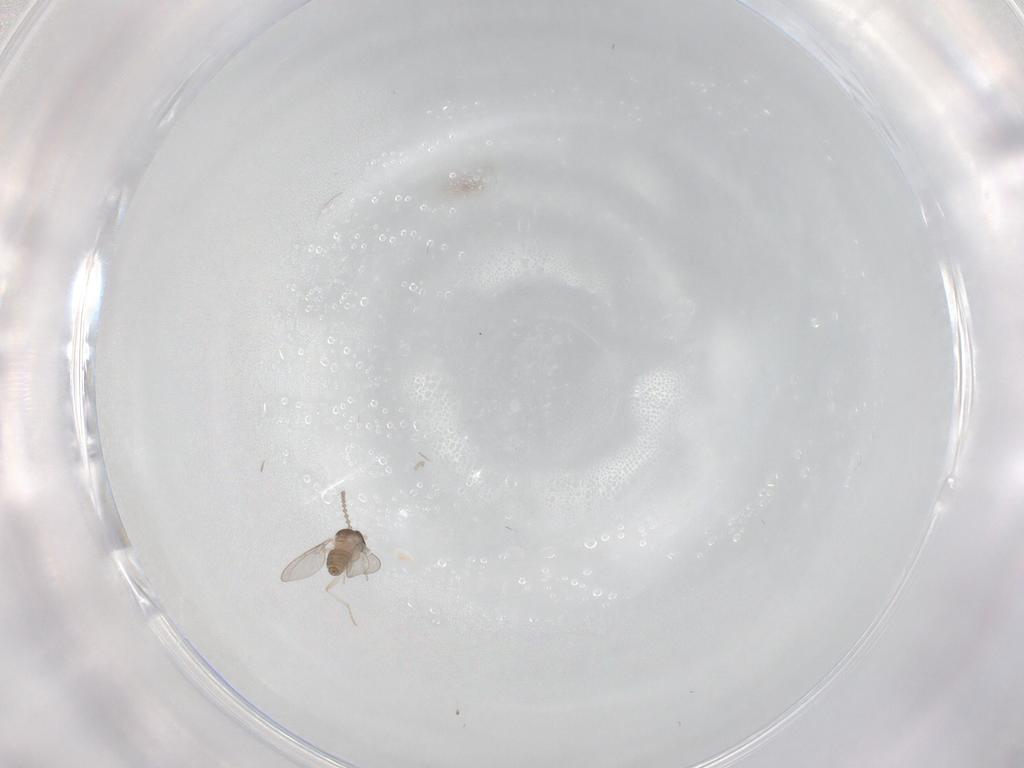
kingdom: Animalia
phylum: Arthropoda
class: Insecta
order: Diptera
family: Cecidomyiidae
